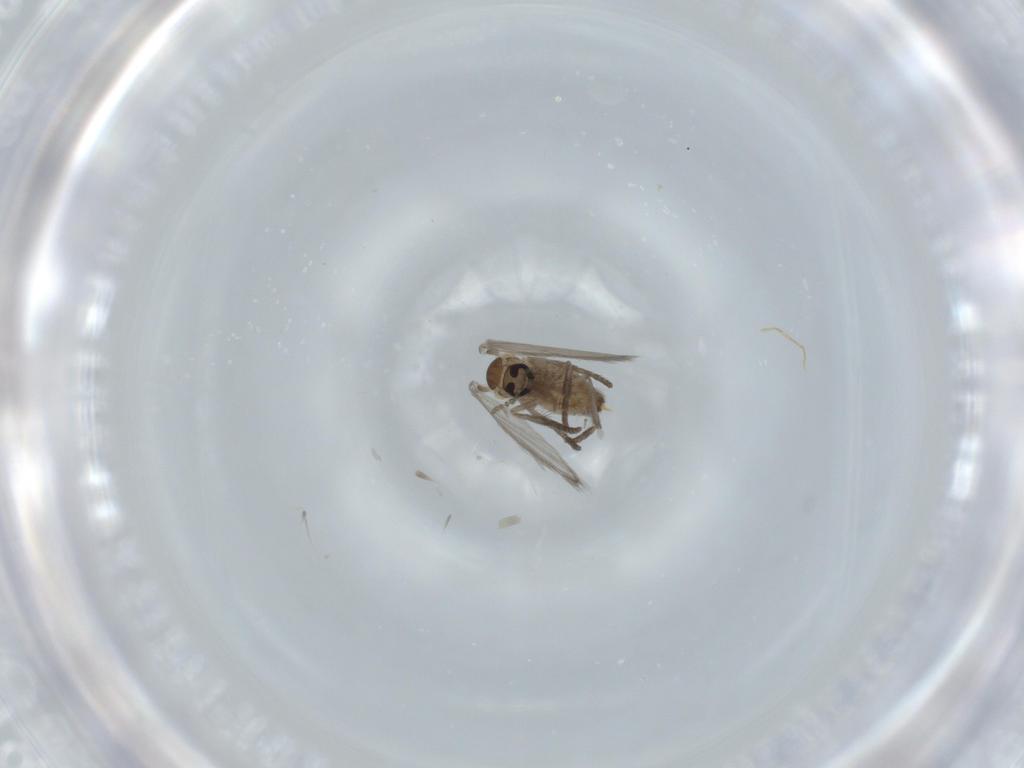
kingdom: Animalia
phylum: Arthropoda
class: Insecta
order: Diptera
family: Psychodidae
